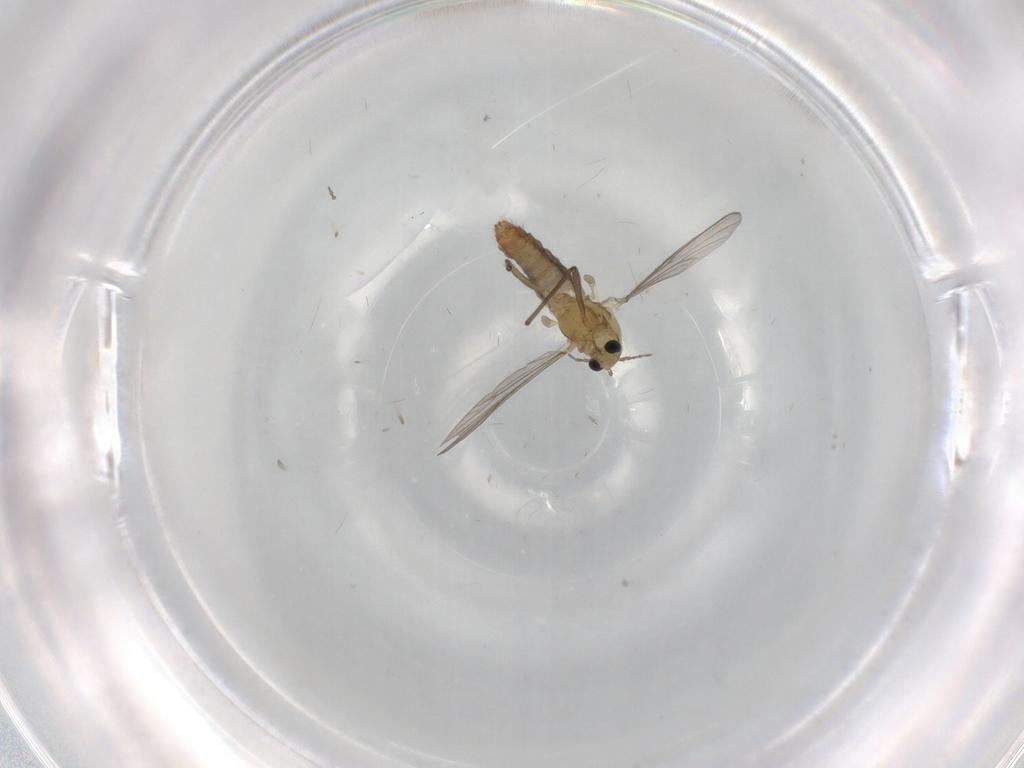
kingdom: Animalia
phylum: Arthropoda
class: Insecta
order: Diptera
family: Chironomidae
